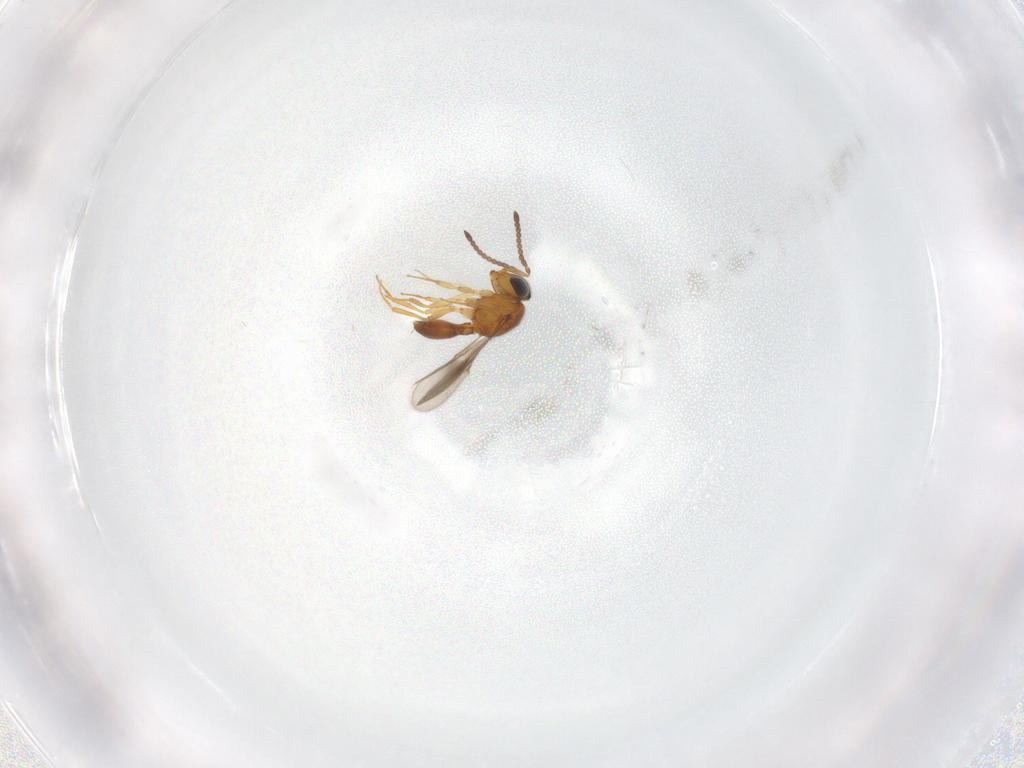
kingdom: Animalia
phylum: Arthropoda
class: Insecta
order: Hymenoptera
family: Scelionidae
